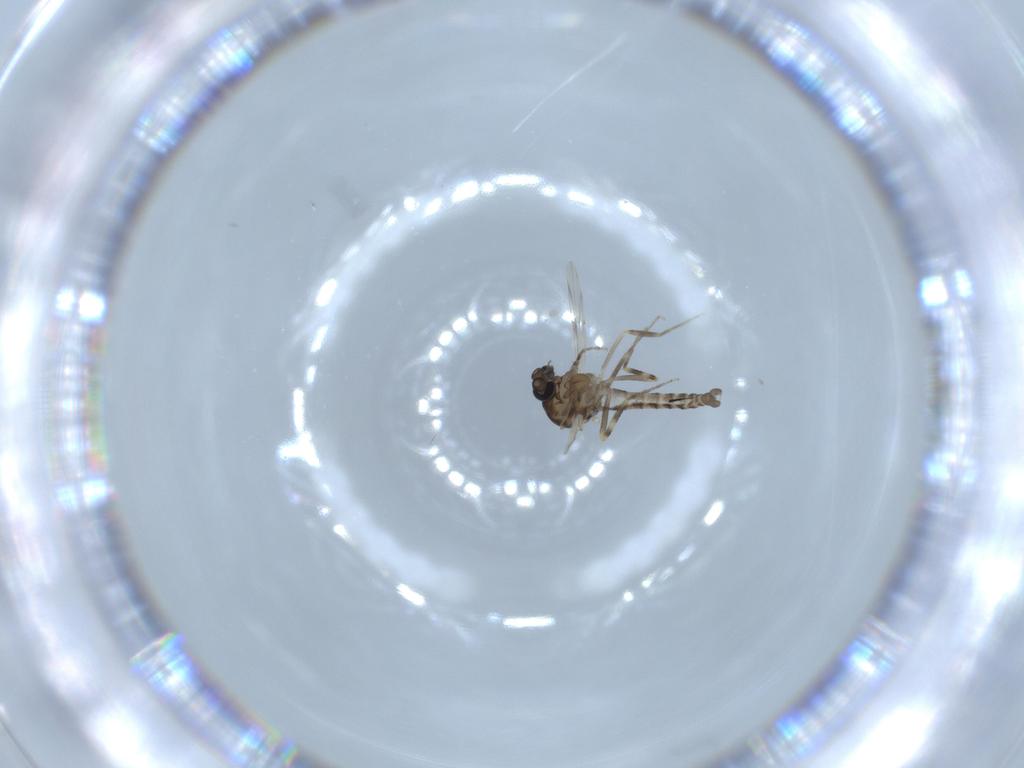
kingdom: Animalia
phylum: Arthropoda
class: Insecta
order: Diptera
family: Ceratopogonidae
